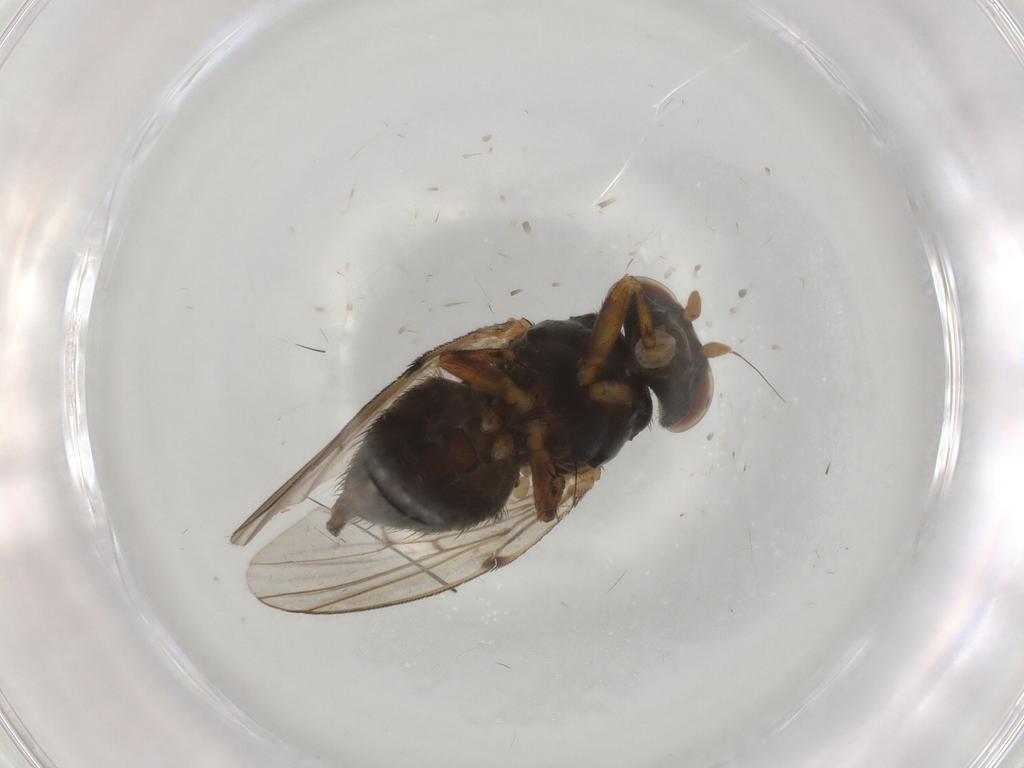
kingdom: Animalia
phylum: Arthropoda
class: Insecta
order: Diptera
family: Odiniidae
